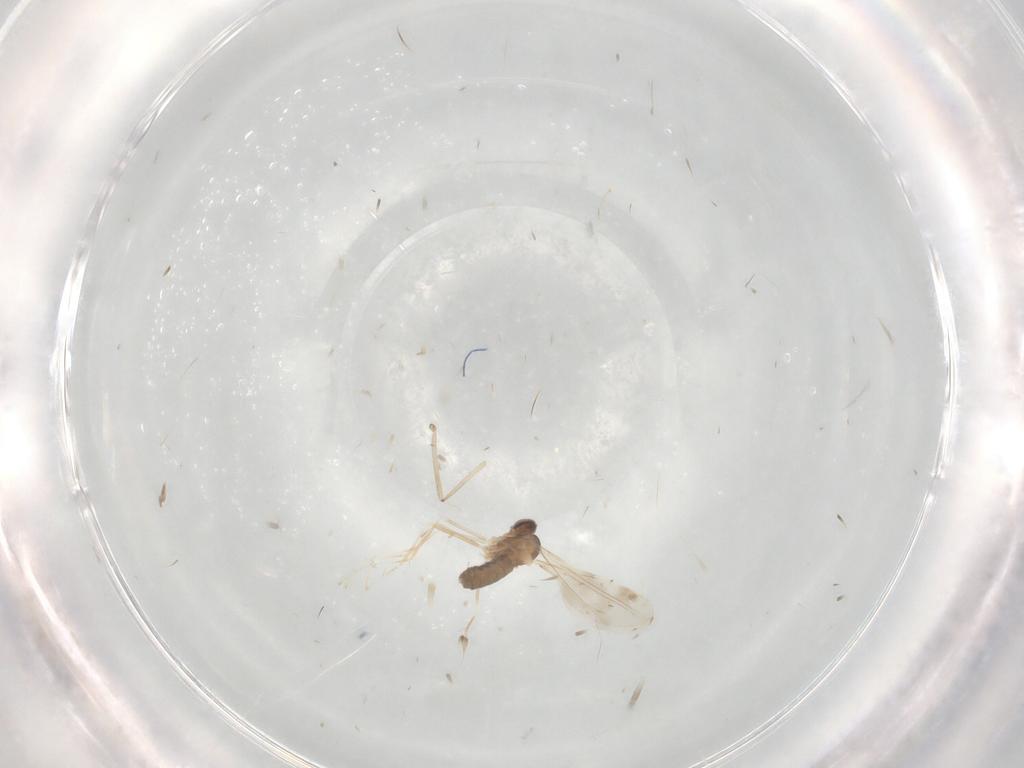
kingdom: Animalia
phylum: Arthropoda
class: Insecta
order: Diptera
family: Cecidomyiidae
